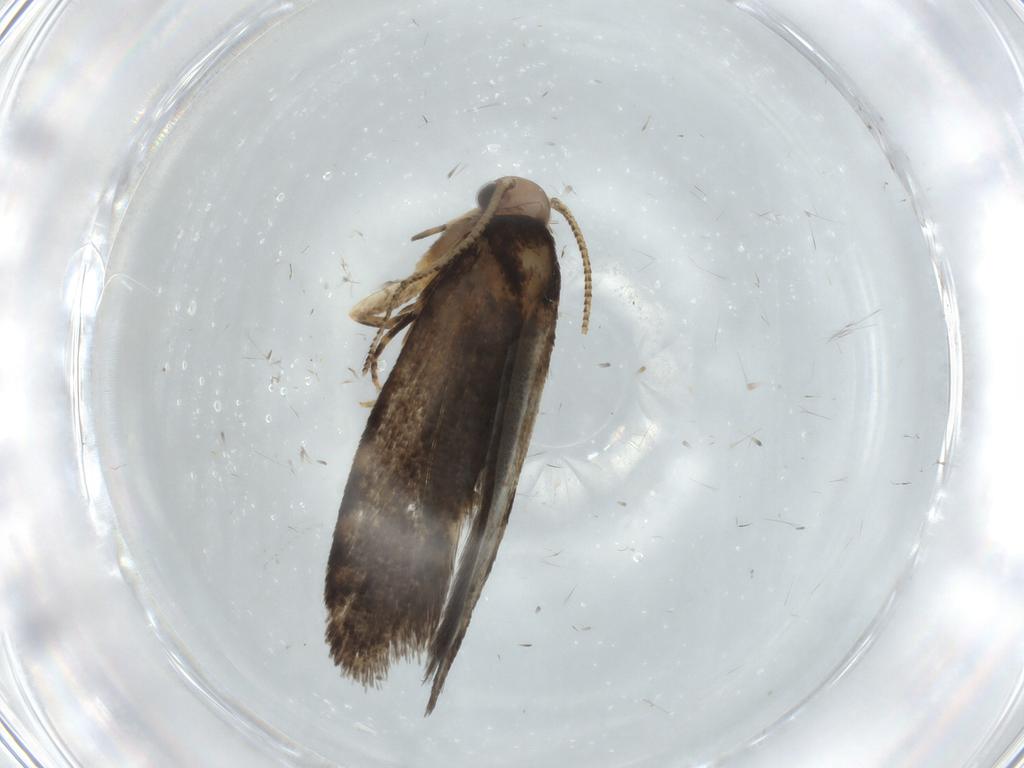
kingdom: Animalia
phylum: Arthropoda
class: Insecta
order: Lepidoptera
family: Tineidae
